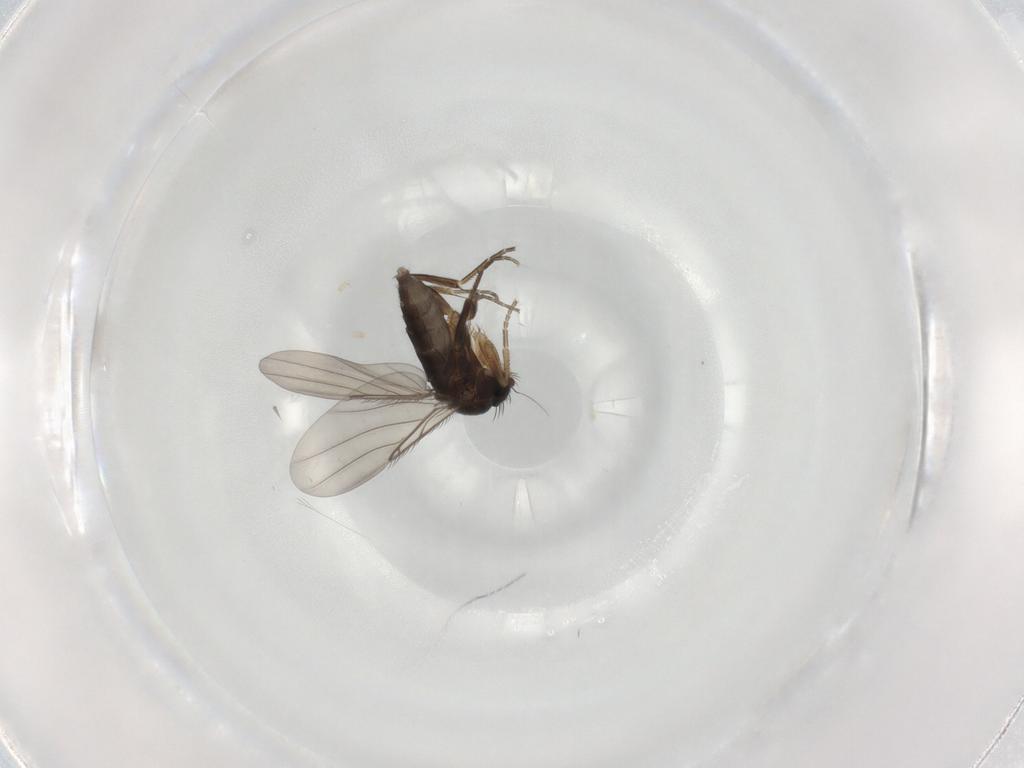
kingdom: Animalia
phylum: Arthropoda
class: Insecta
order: Diptera
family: Phoridae
